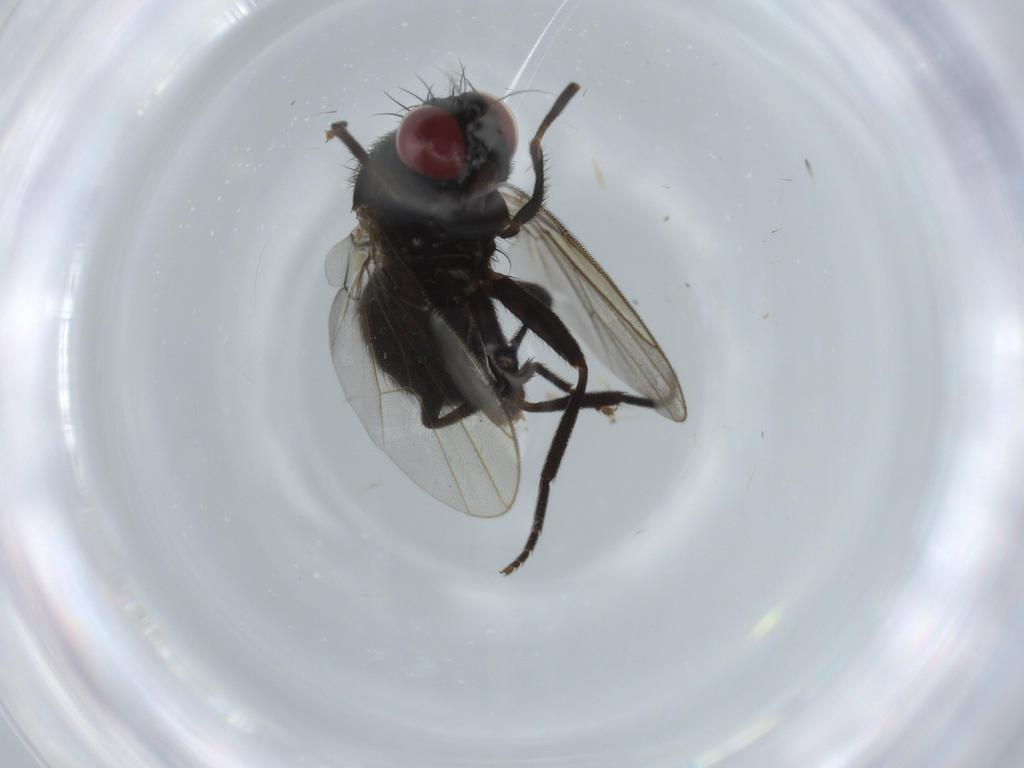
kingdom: Animalia
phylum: Arthropoda
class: Insecta
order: Diptera
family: Agromyzidae
